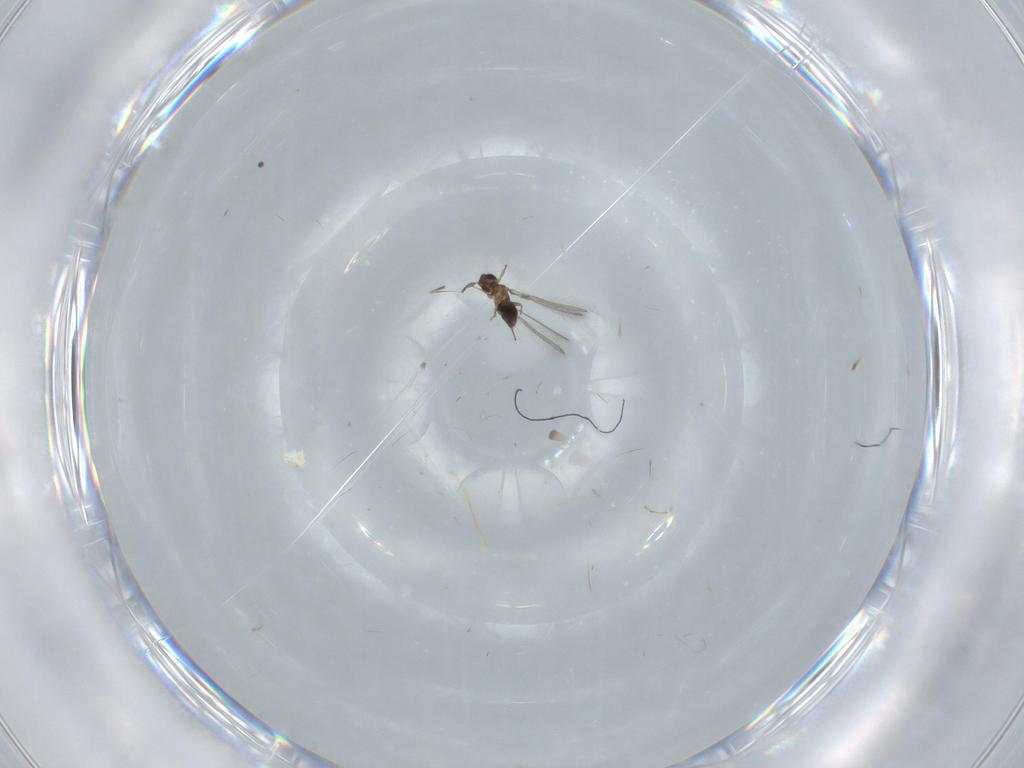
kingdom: Animalia
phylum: Arthropoda
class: Insecta
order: Hymenoptera
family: Mymaridae
